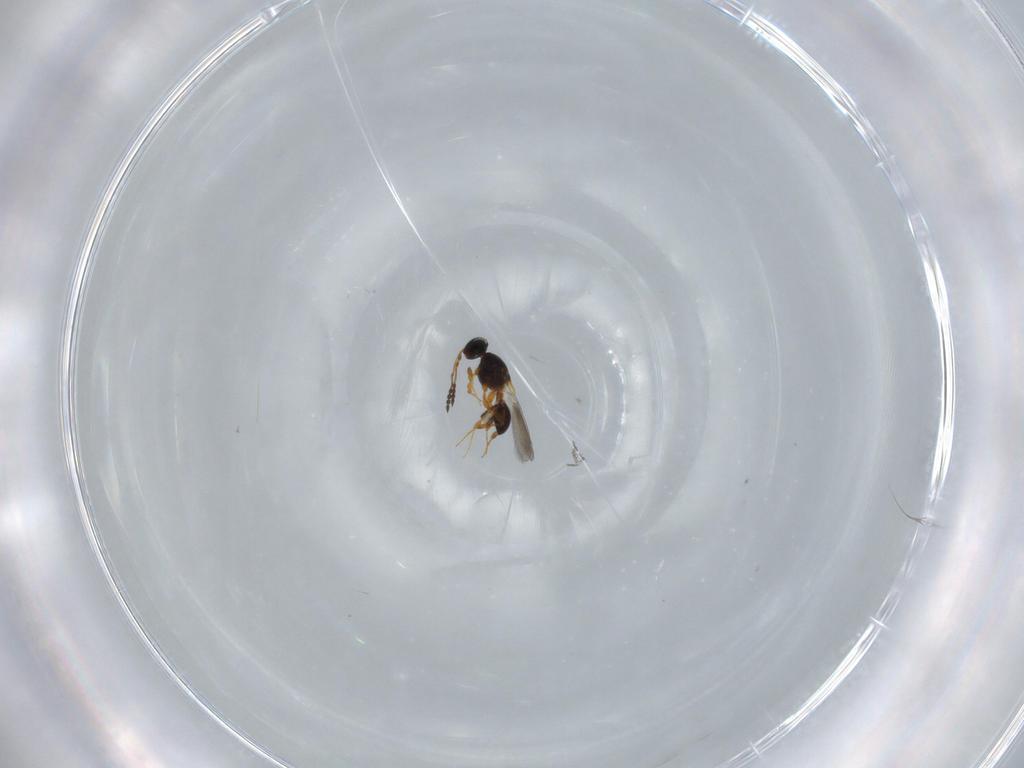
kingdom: Animalia
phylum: Arthropoda
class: Insecta
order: Hymenoptera
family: Platygastridae
